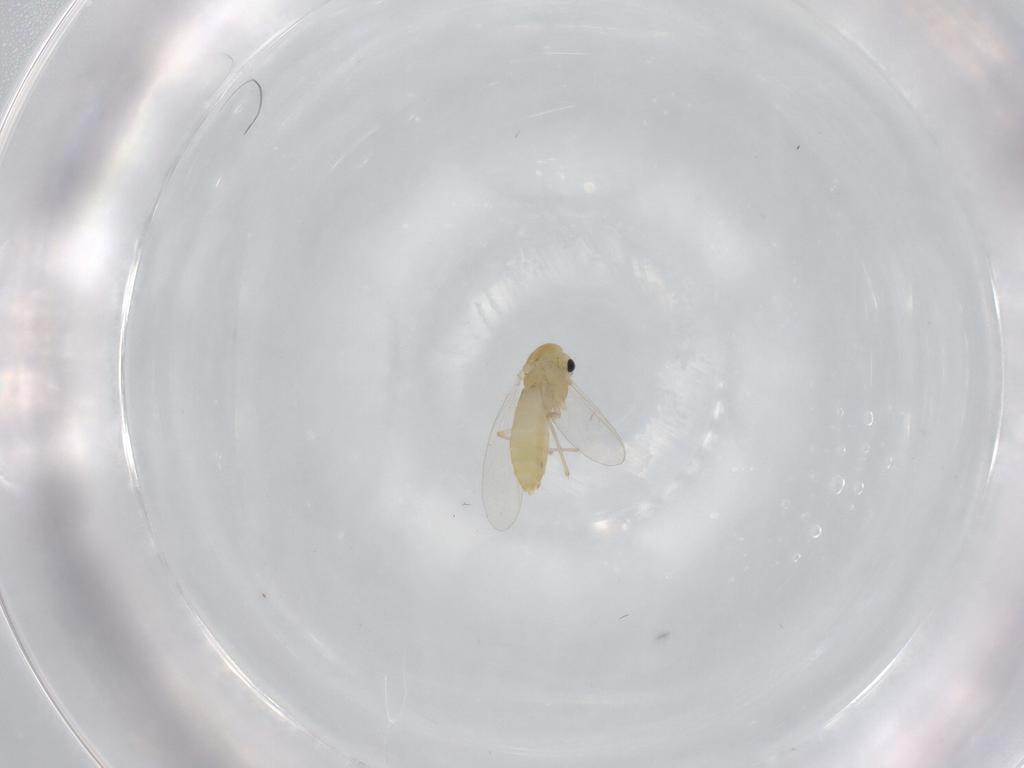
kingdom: Animalia
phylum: Arthropoda
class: Insecta
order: Diptera
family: Chironomidae
